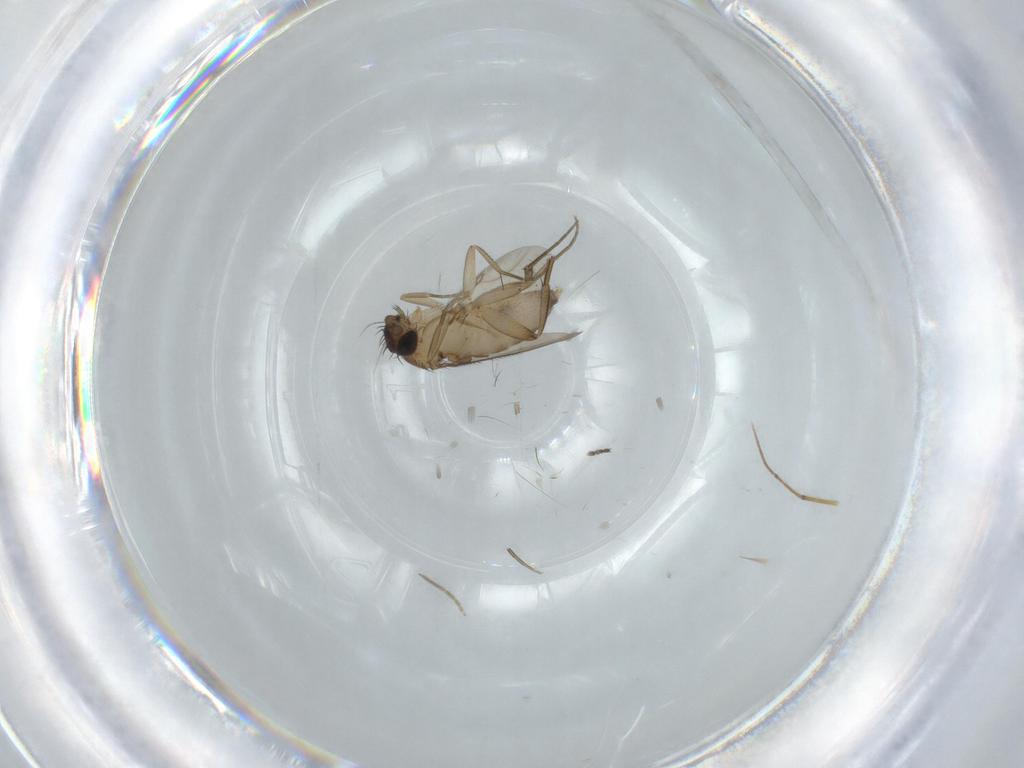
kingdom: Animalia
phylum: Arthropoda
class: Insecta
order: Diptera
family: Phoridae
